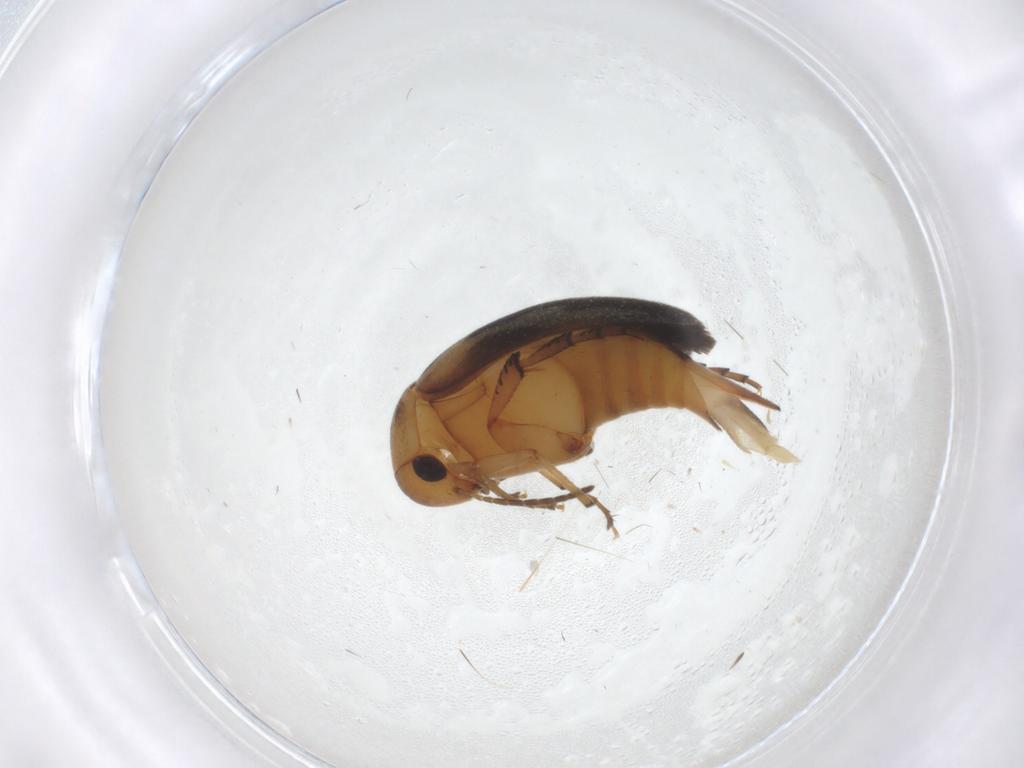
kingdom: Animalia
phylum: Arthropoda
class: Insecta
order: Coleoptera
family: Mordellidae
